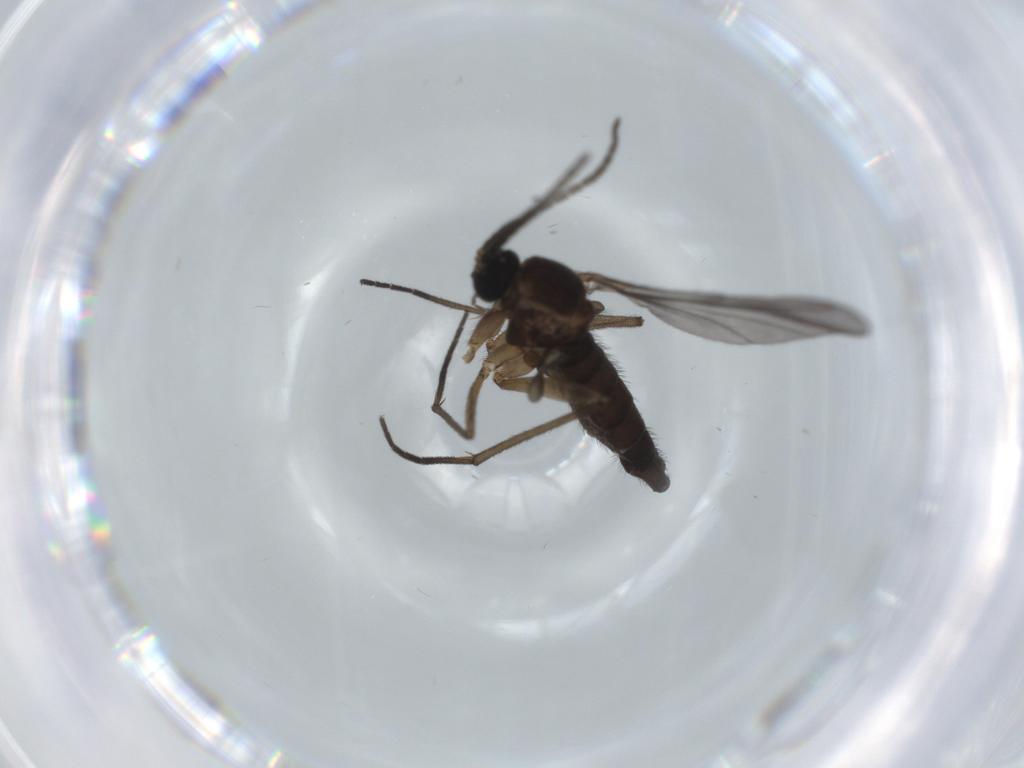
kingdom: Animalia
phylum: Arthropoda
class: Insecta
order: Diptera
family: Sciaridae
